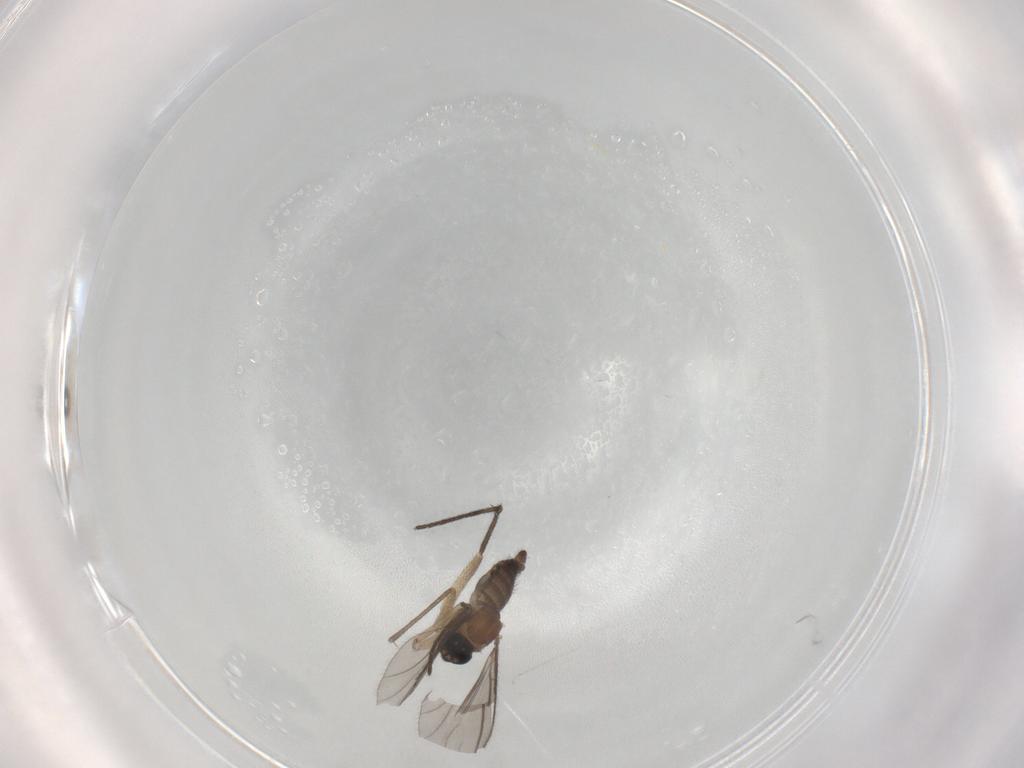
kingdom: Animalia
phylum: Arthropoda
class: Insecta
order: Diptera
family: Sciaridae
